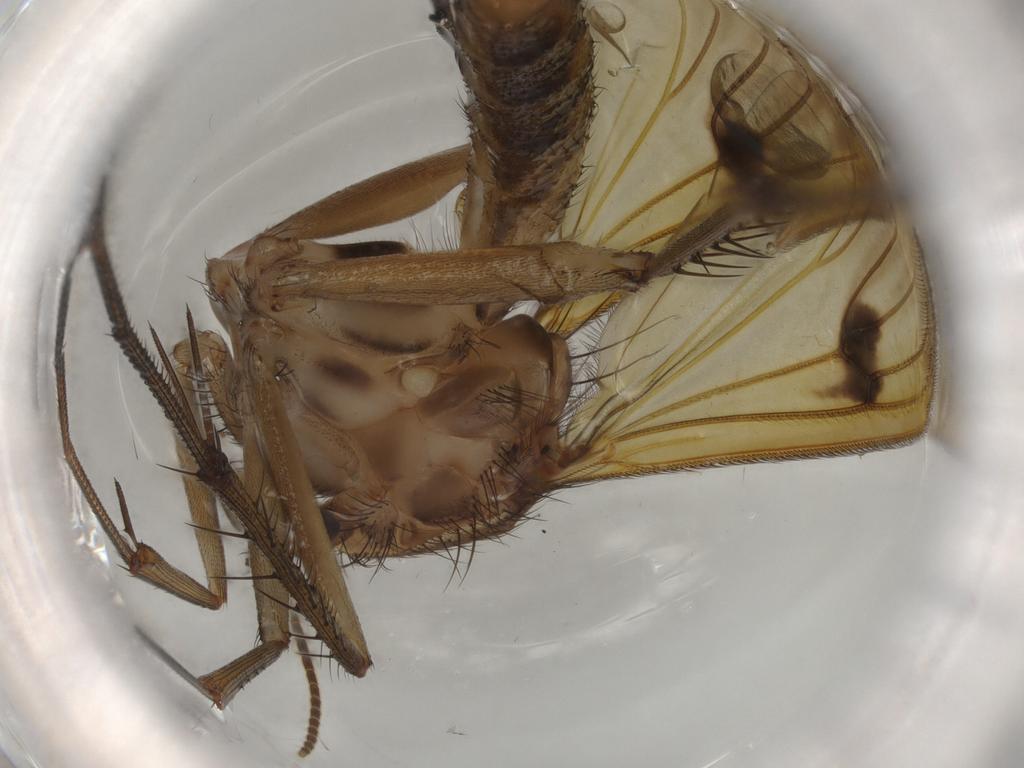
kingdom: Animalia
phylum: Arthropoda
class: Insecta
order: Diptera
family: Mycetophilidae
